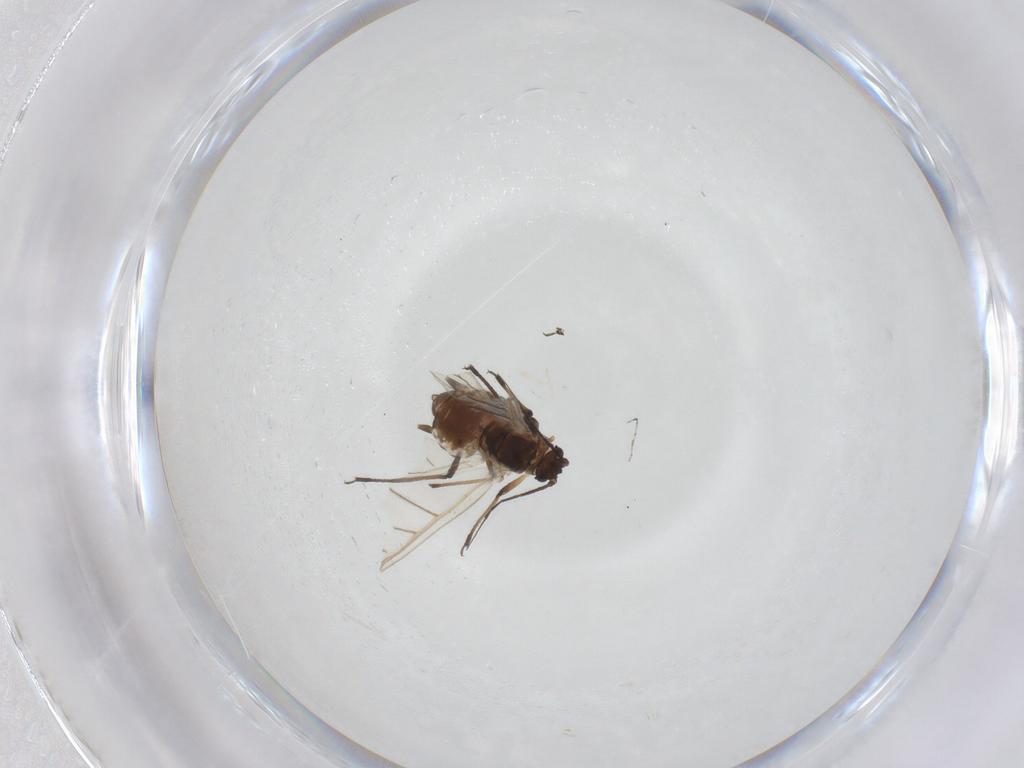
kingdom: Animalia
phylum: Arthropoda
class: Insecta
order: Hemiptera
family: Aphididae
